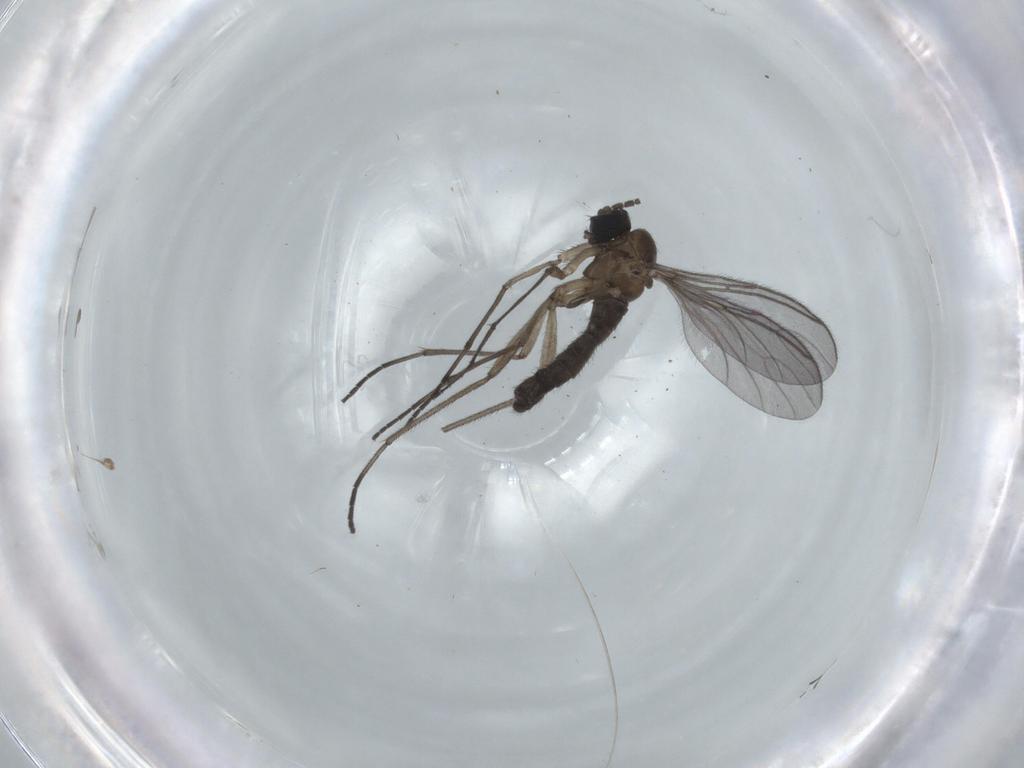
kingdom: Animalia
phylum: Arthropoda
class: Insecta
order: Diptera
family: Sciaridae
